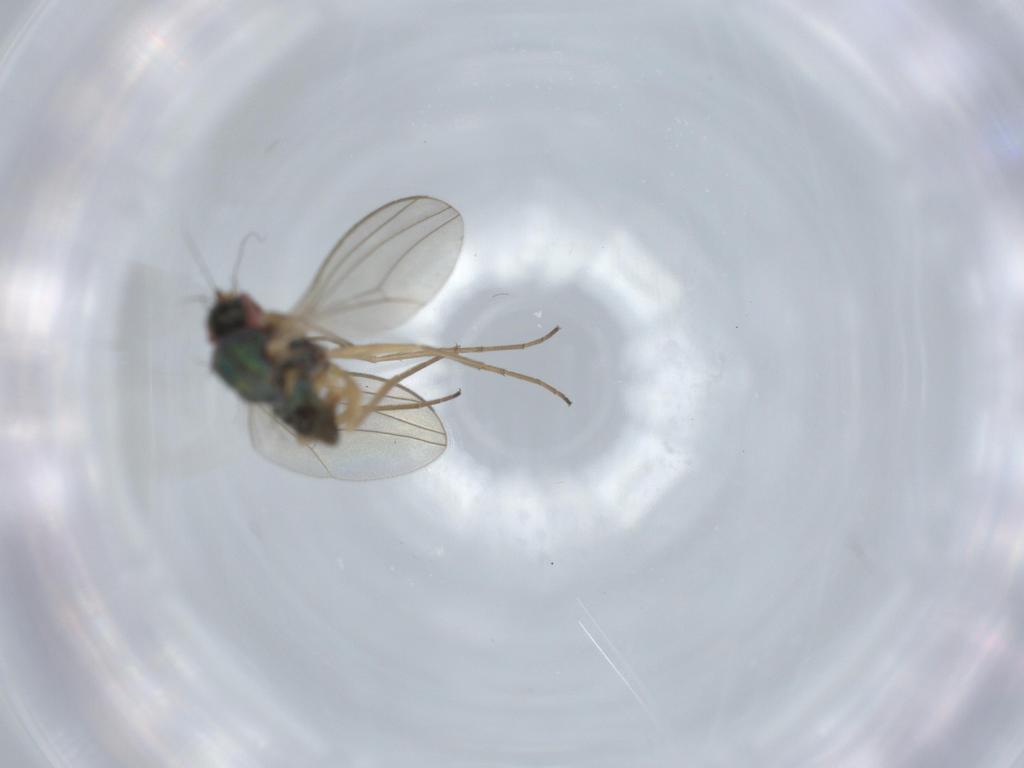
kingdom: Animalia
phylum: Arthropoda
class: Insecta
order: Diptera
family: Dolichopodidae
